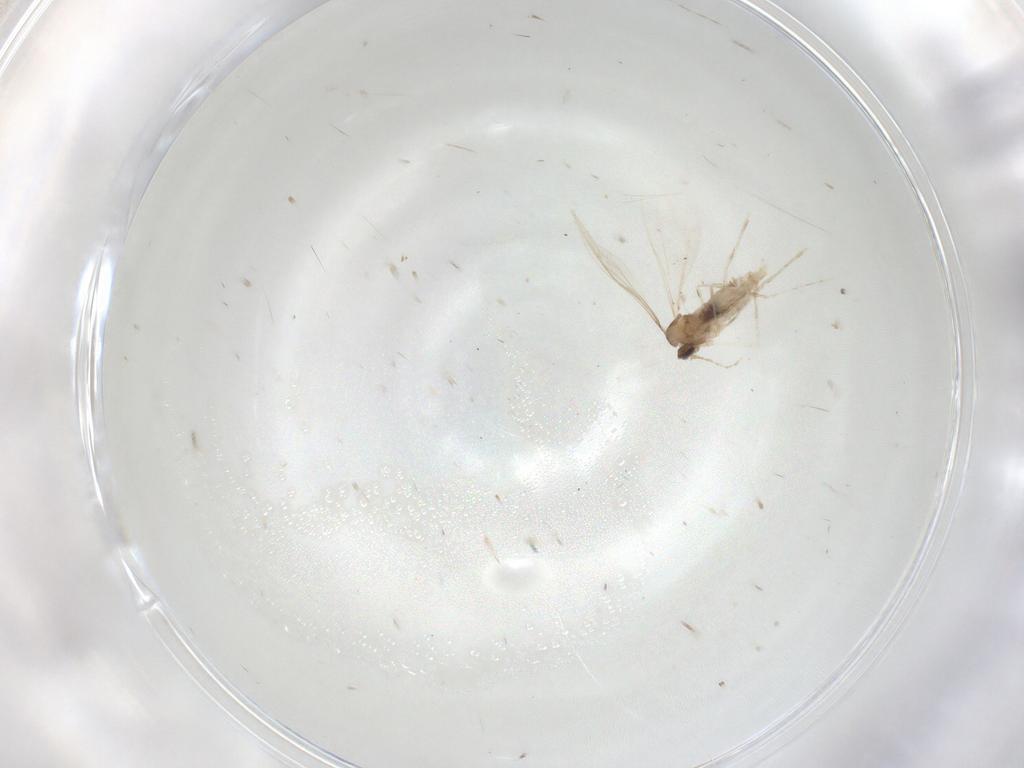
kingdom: Animalia
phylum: Arthropoda
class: Insecta
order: Diptera
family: Cecidomyiidae
